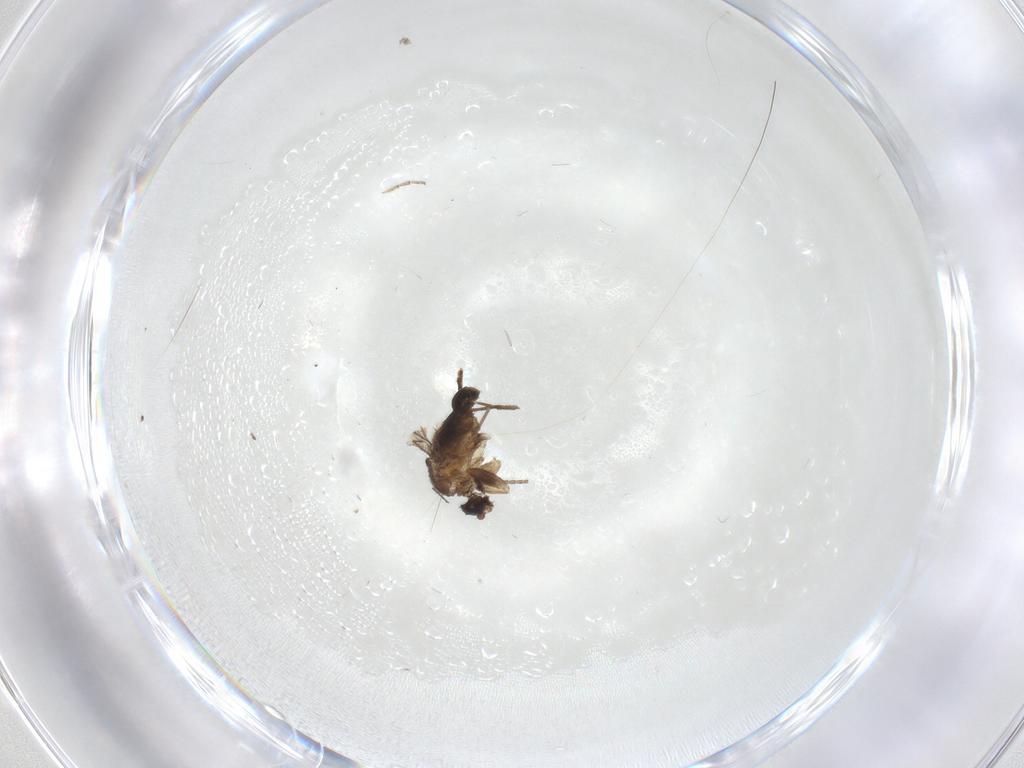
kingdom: Animalia
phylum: Arthropoda
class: Insecta
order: Diptera
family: Cecidomyiidae
